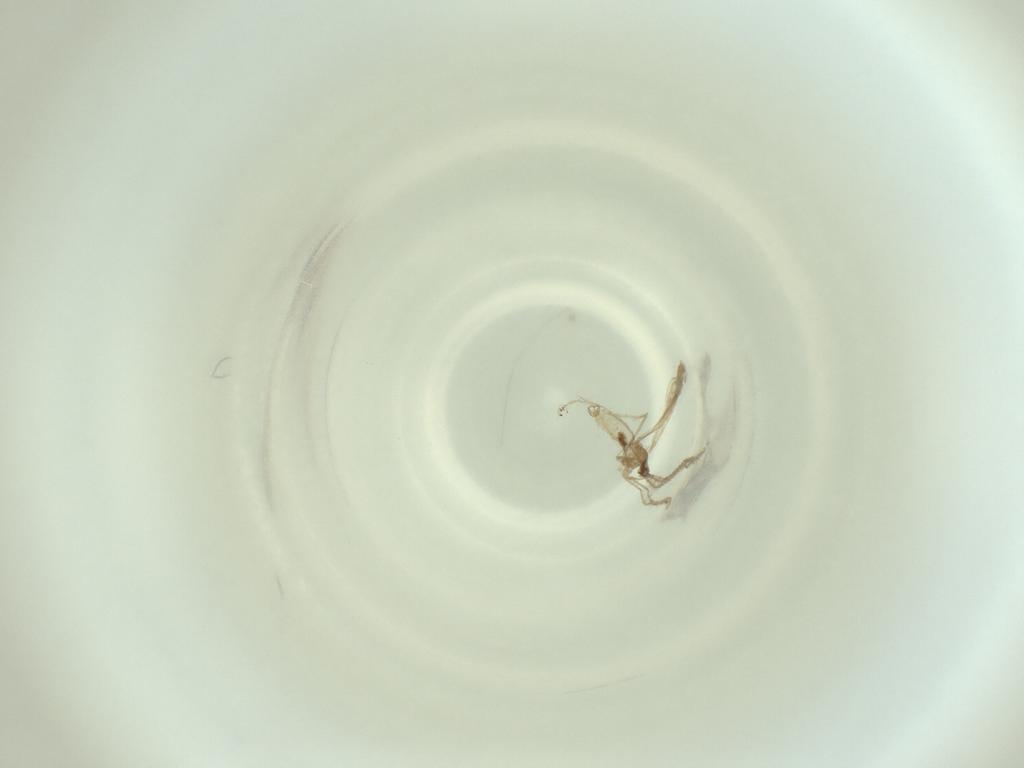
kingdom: Animalia
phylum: Arthropoda
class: Insecta
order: Diptera
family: Cecidomyiidae
